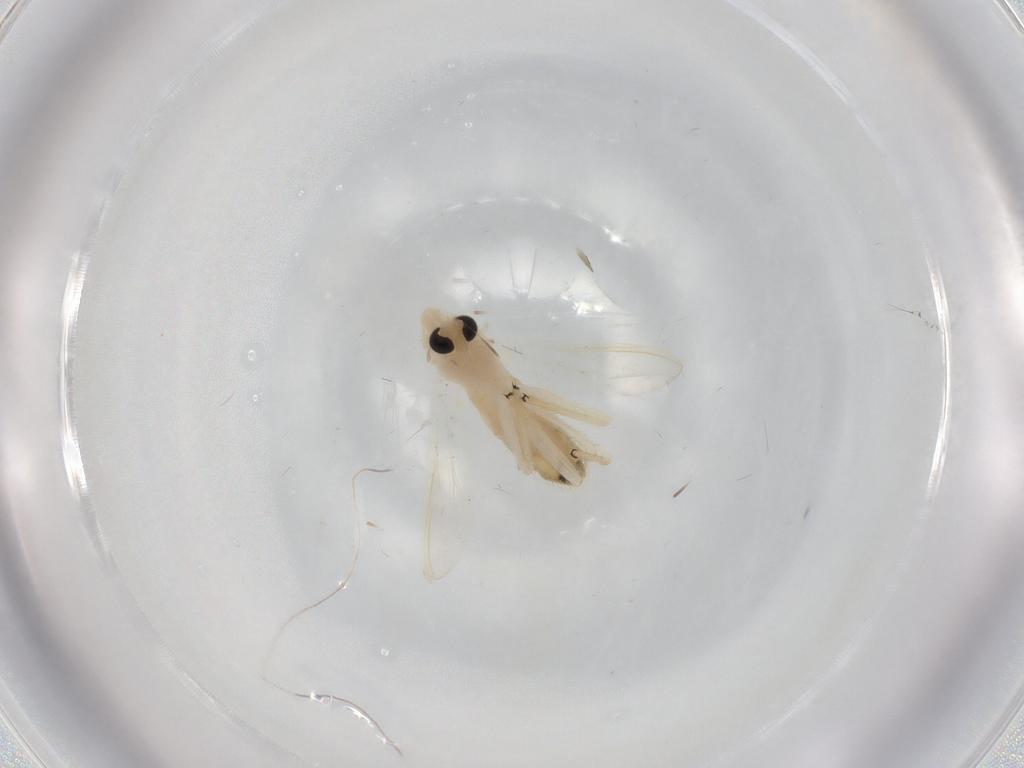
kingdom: Animalia
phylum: Arthropoda
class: Insecta
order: Diptera
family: Chironomidae
